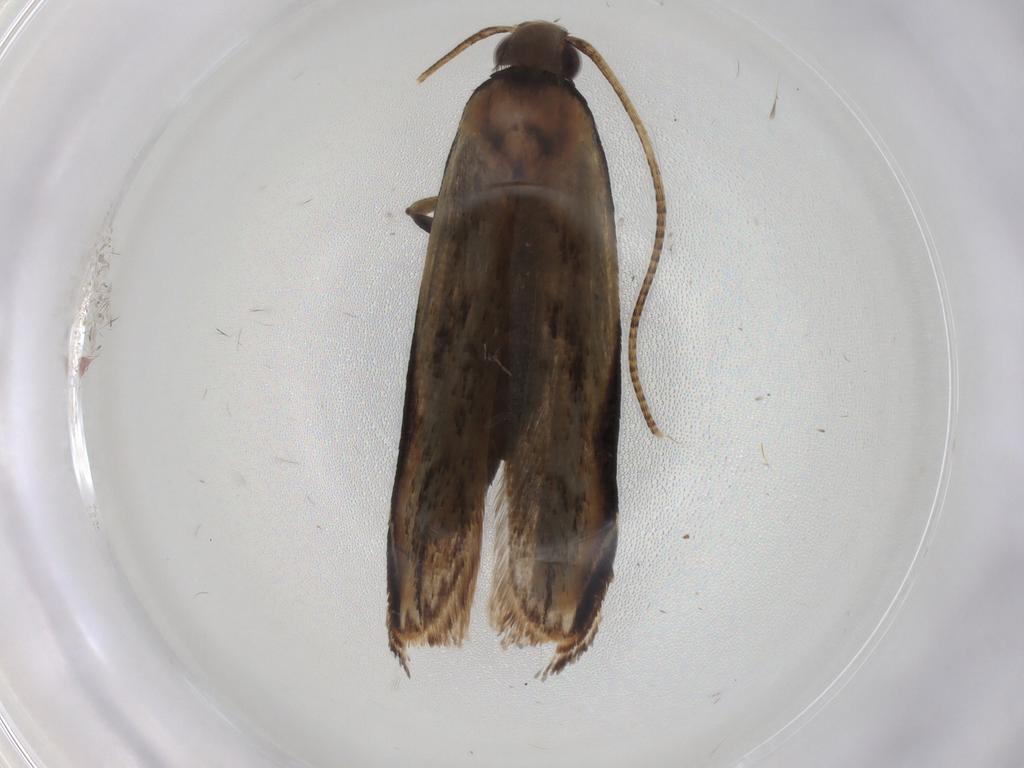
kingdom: Animalia
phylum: Arthropoda
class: Insecta
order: Lepidoptera
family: Gelechiidae
